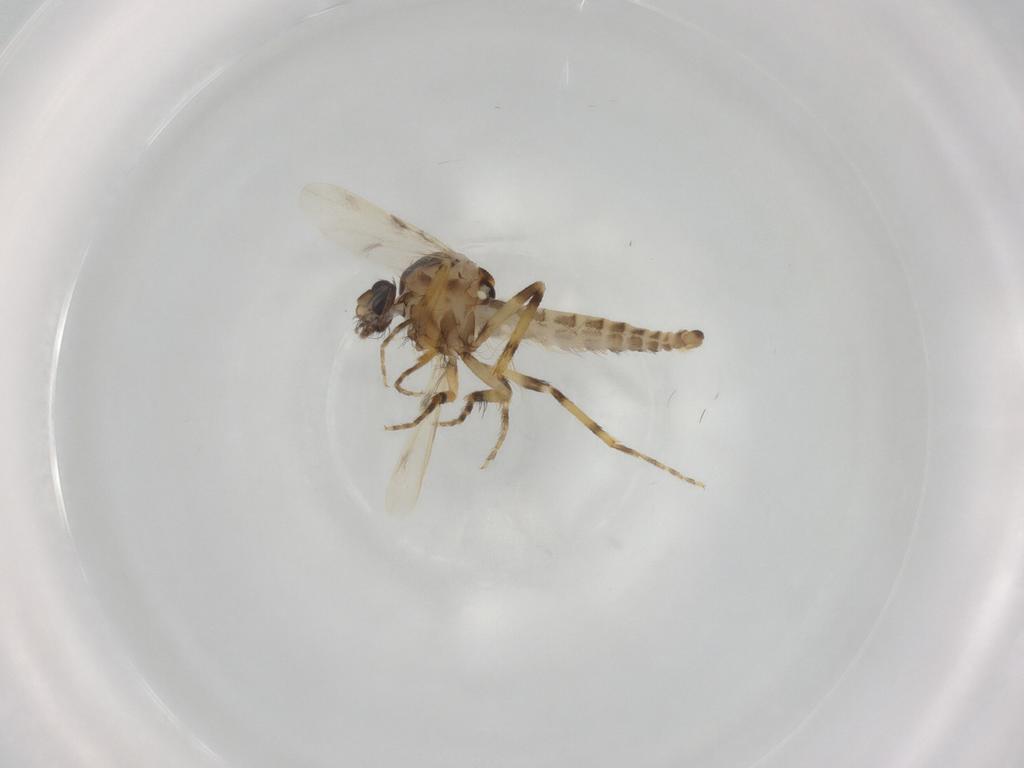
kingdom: Animalia
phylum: Arthropoda
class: Insecta
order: Diptera
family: Ceratopogonidae
